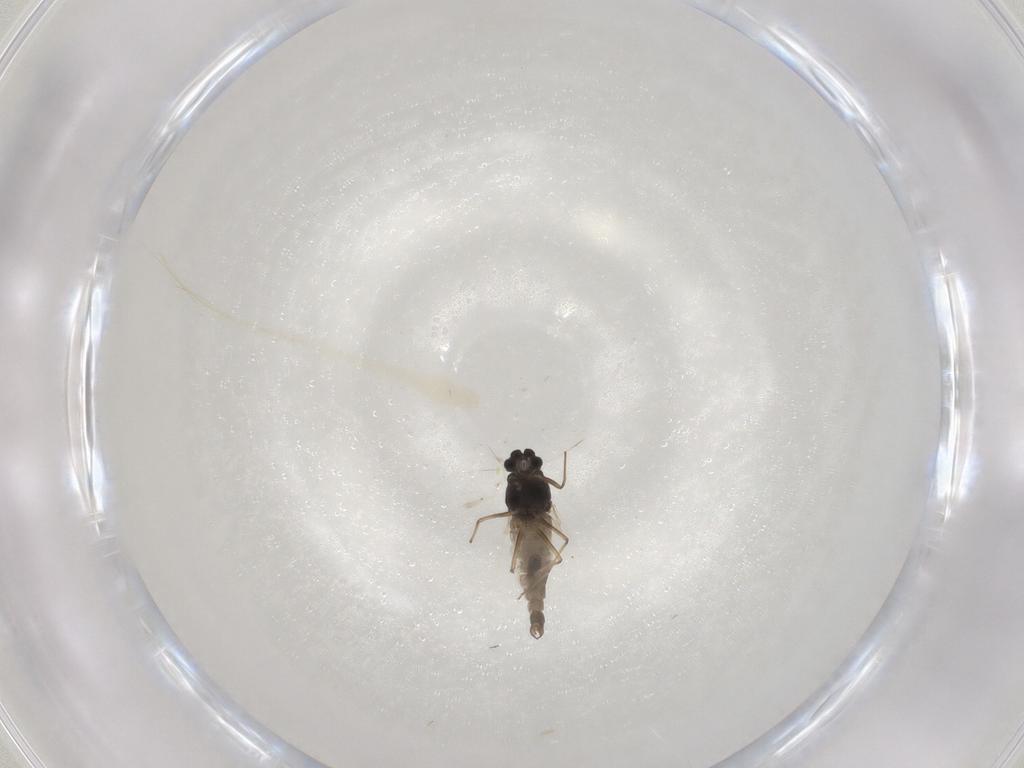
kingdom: Animalia
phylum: Arthropoda
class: Insecta
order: Diptera
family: Chironomidae
